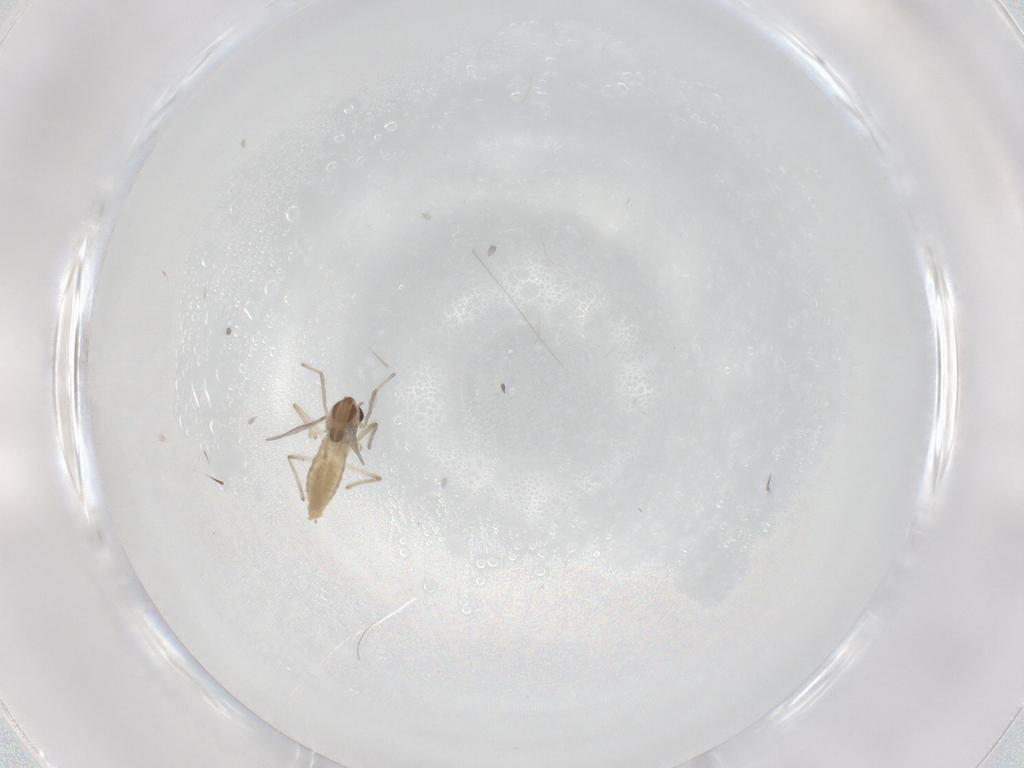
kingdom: Animalia
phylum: Arthropoda
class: Insecta
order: Diptera
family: Chironomidae
